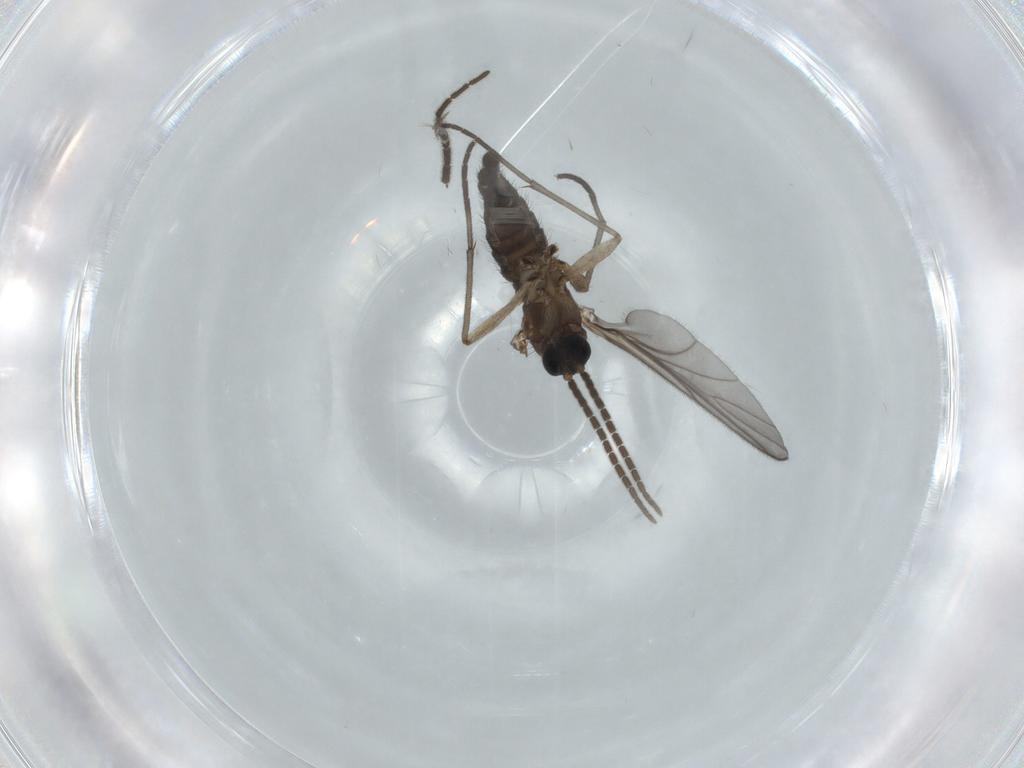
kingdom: Animalia
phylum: Arthropoda
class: Insecta
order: Diptera
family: Sciaridae
